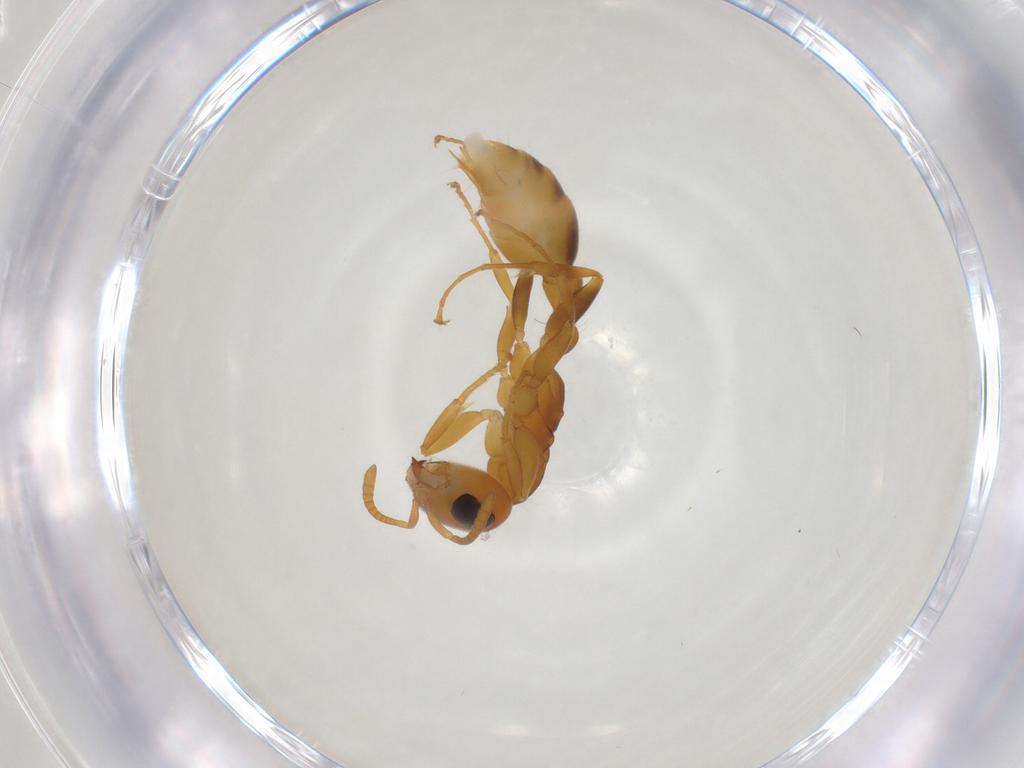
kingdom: Animalia
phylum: Arthropoda
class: Insecta
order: Hymenoptera
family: Formicidae
